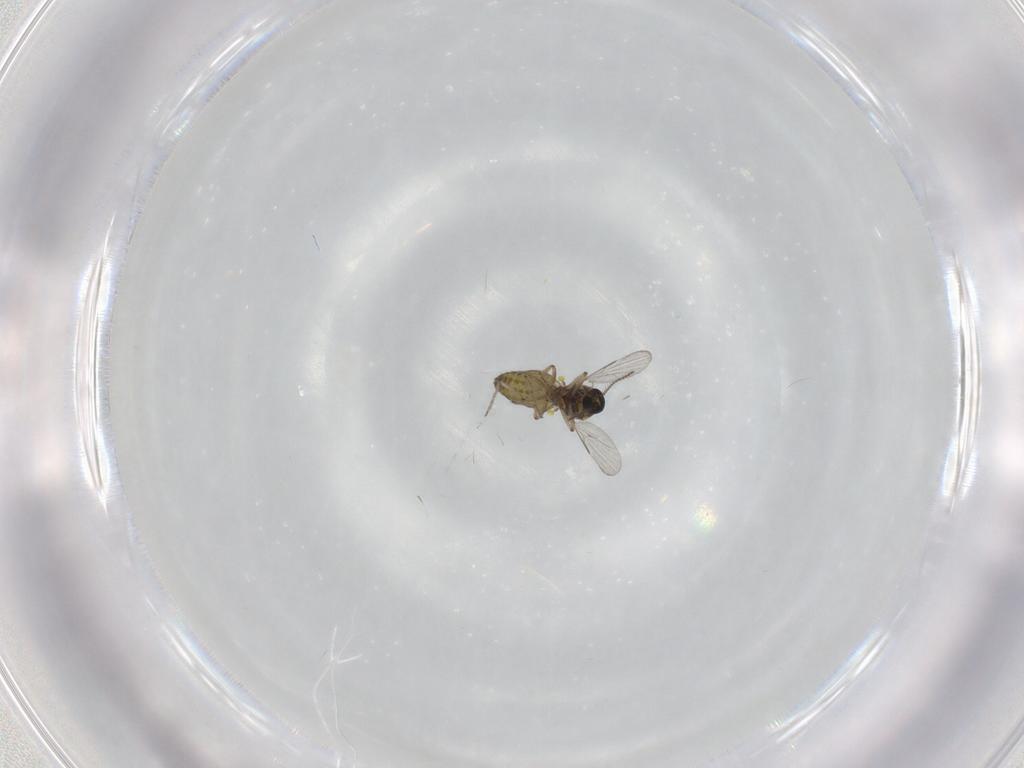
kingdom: Animalia
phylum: Arthropoda
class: Insecta
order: Diptera
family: Ceratopogonidae
